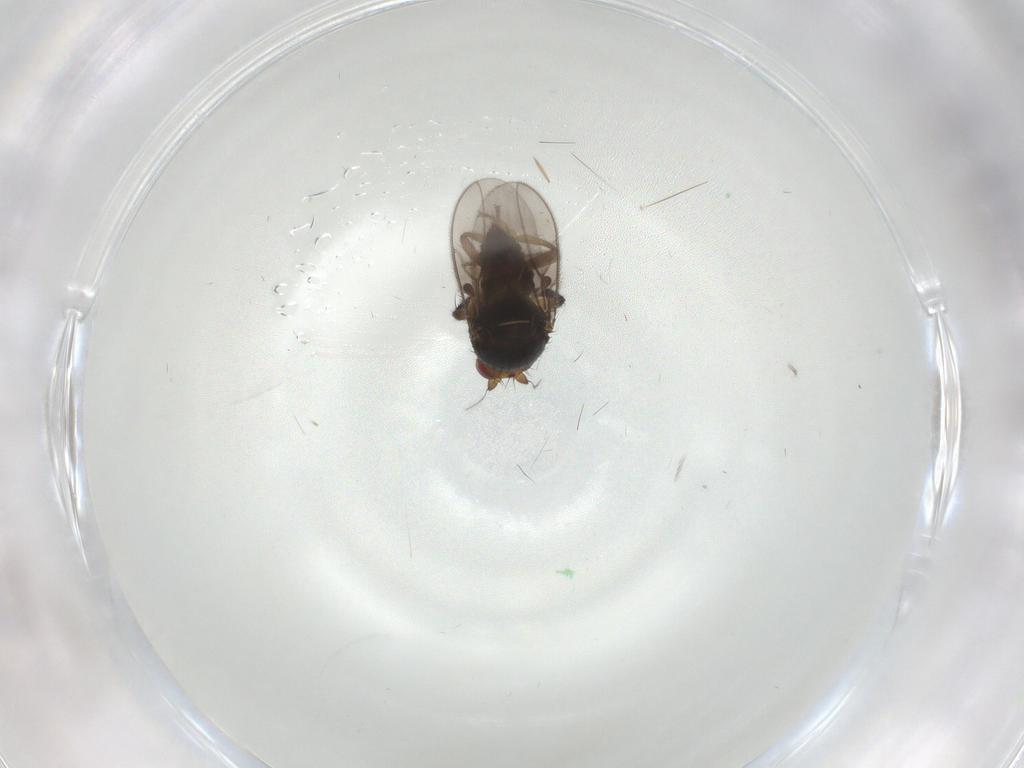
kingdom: Animalia
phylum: Arthropoda
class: Insecta
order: Diptera
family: Sphaeroceridae
